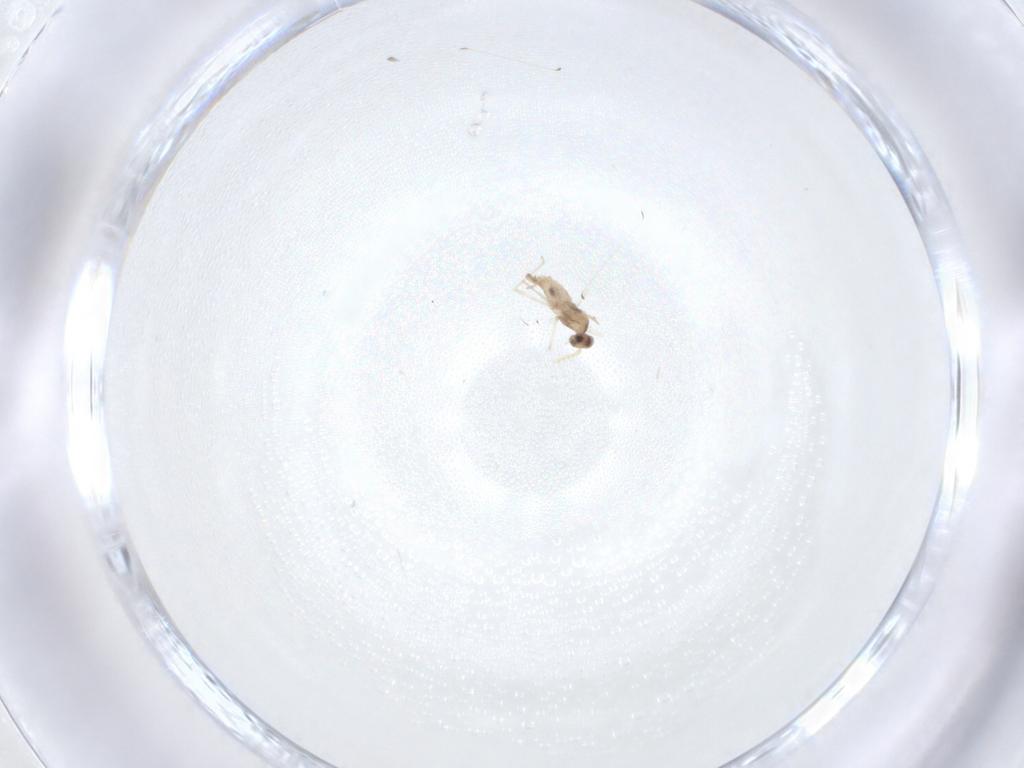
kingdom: Animalia
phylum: Arthropoda
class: Insecta
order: Diptera
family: Cecidomyiidae
